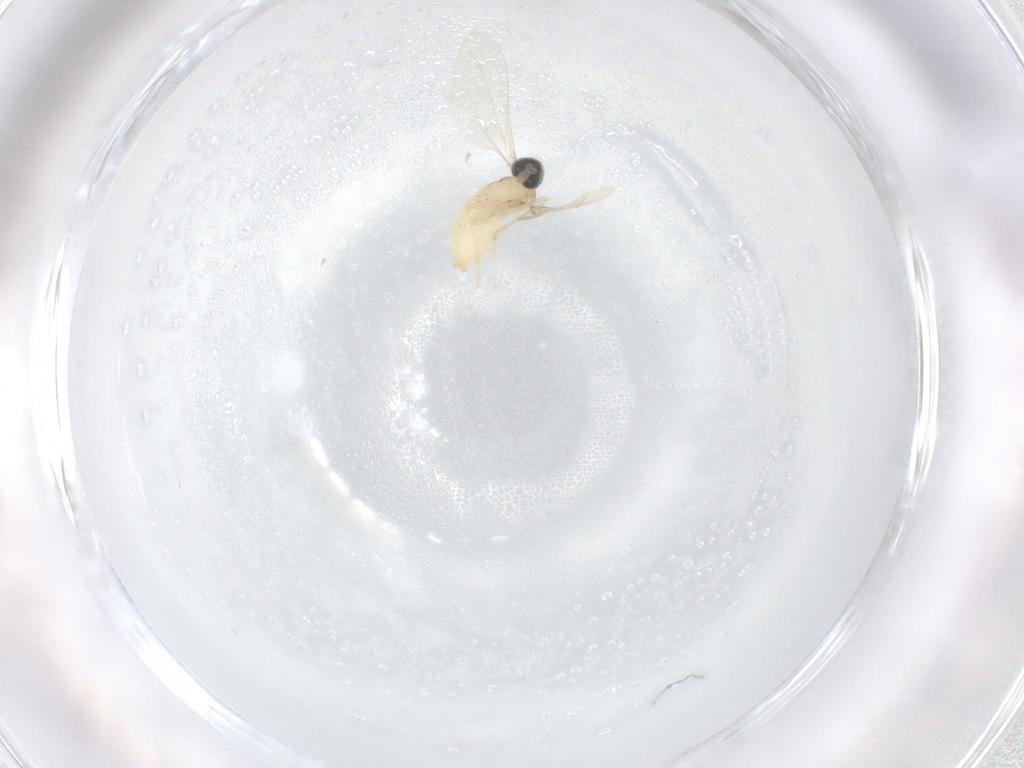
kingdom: Animalia
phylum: Arthropoda
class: Insecta
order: Diptera
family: Cecidomyiidae
